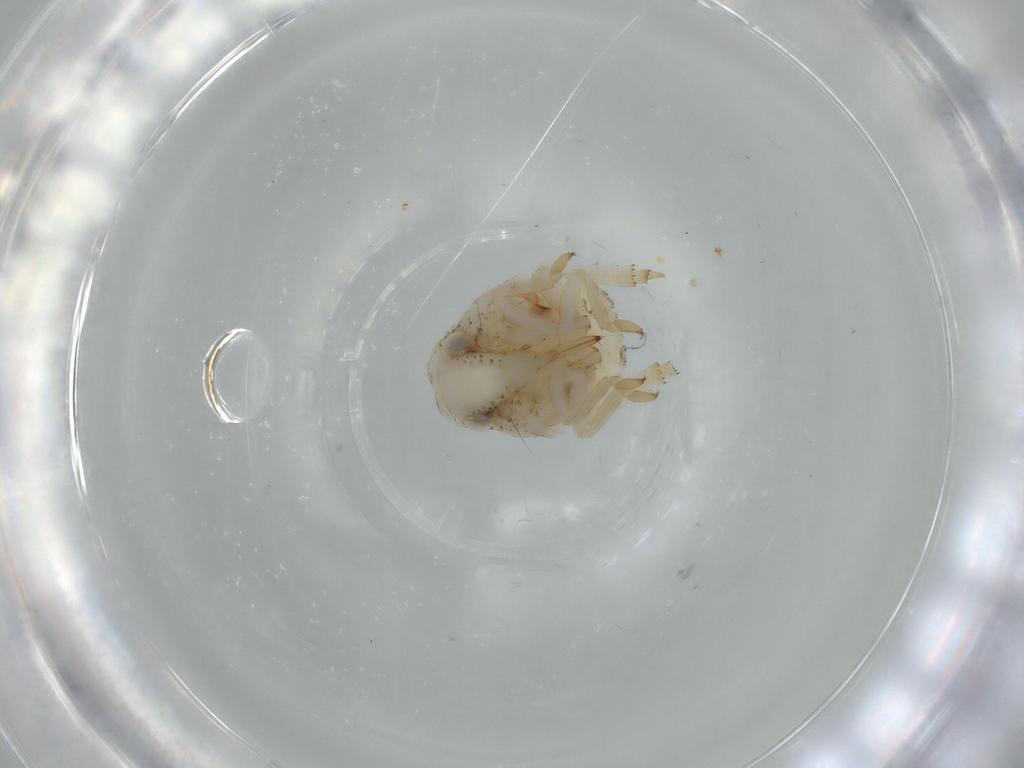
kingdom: Animalia
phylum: Arthropoda
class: Insecta
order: Hemiptera
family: Acanaloniidae
